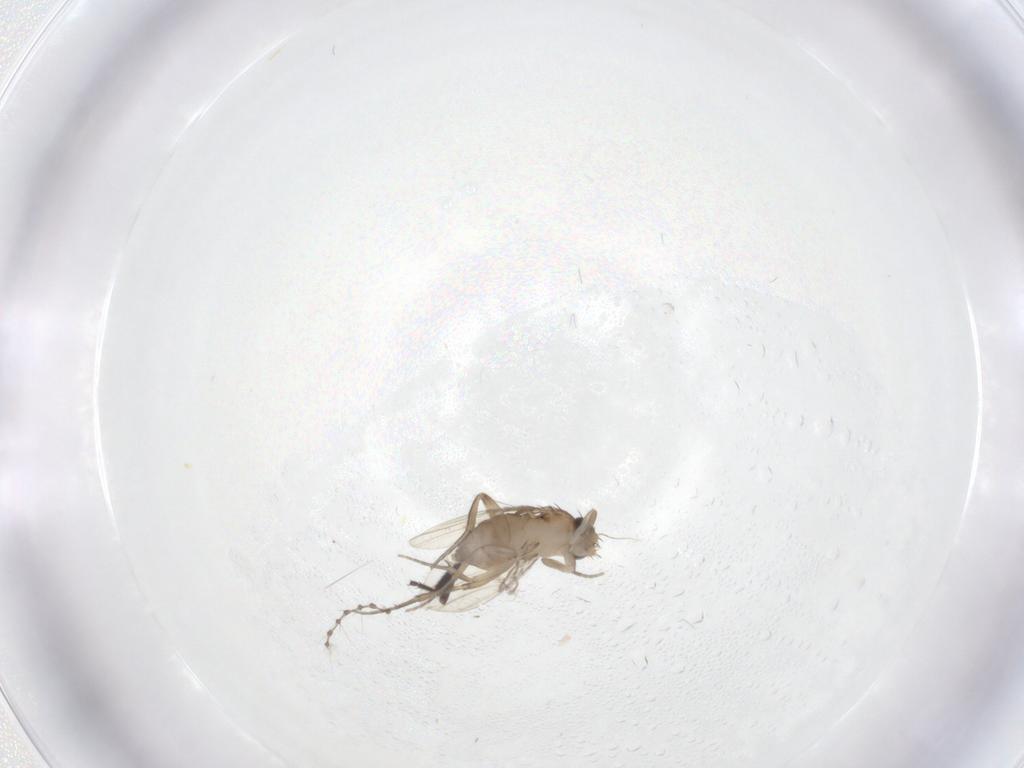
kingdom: Animalia
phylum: Arthropoda
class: Insecta
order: Diptera
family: Phoridae
